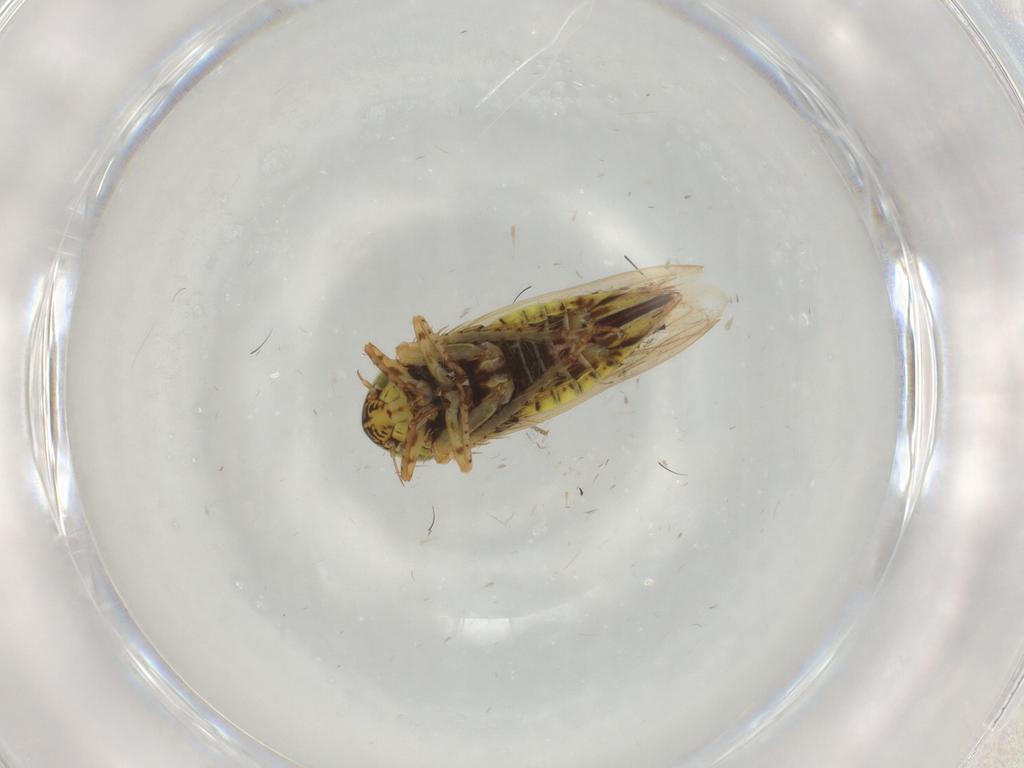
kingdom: Animalia
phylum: Arthropoda
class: Insecta
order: Hemiptera
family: Cicadellidae
